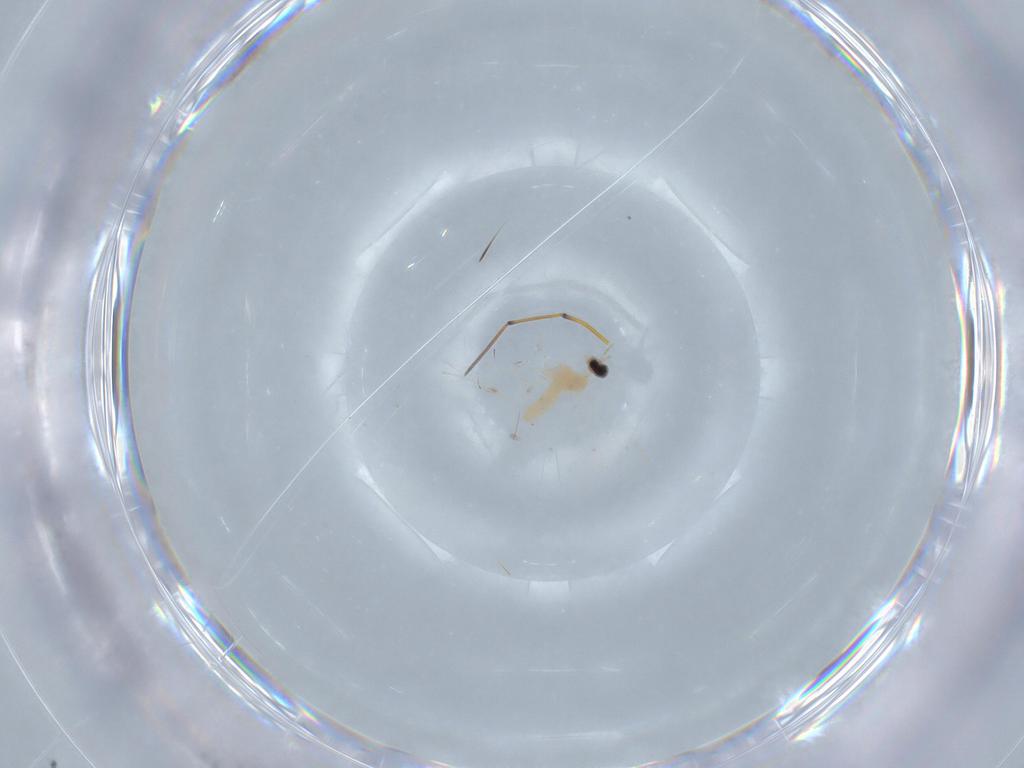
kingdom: Animalia
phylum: Arthropoda
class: Insecta
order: Diptera
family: Cecidomyiidae
